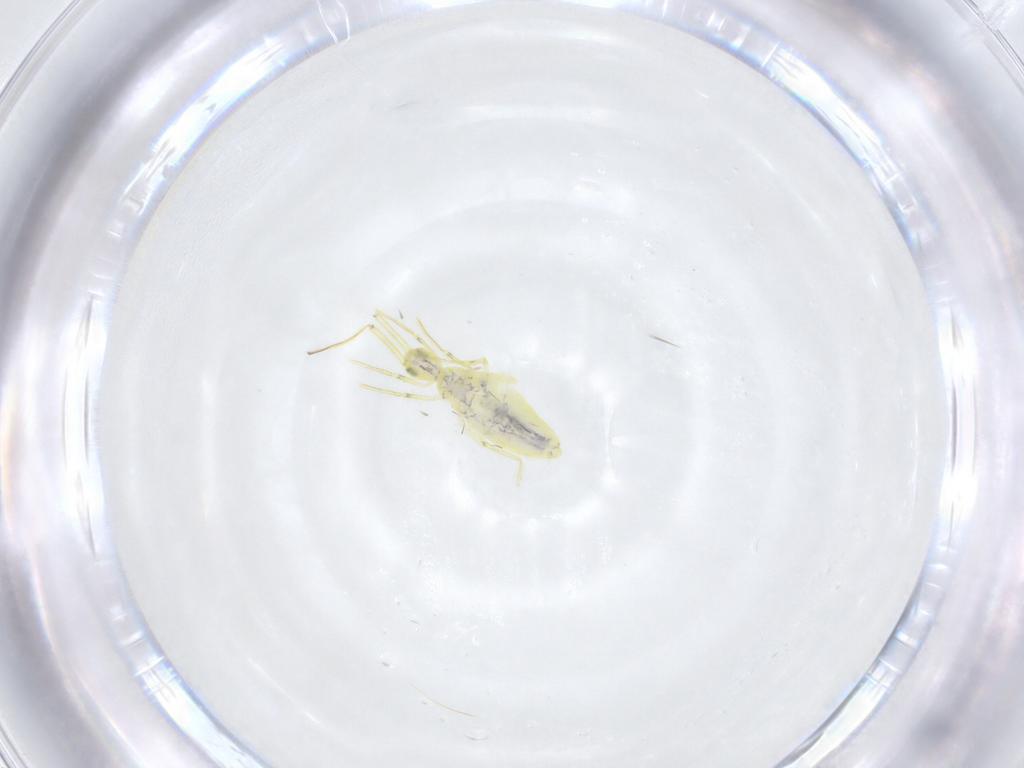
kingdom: Animalia
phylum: Arthropoda
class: Collembola
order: Entomobryomorpha
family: Entomobryidae
